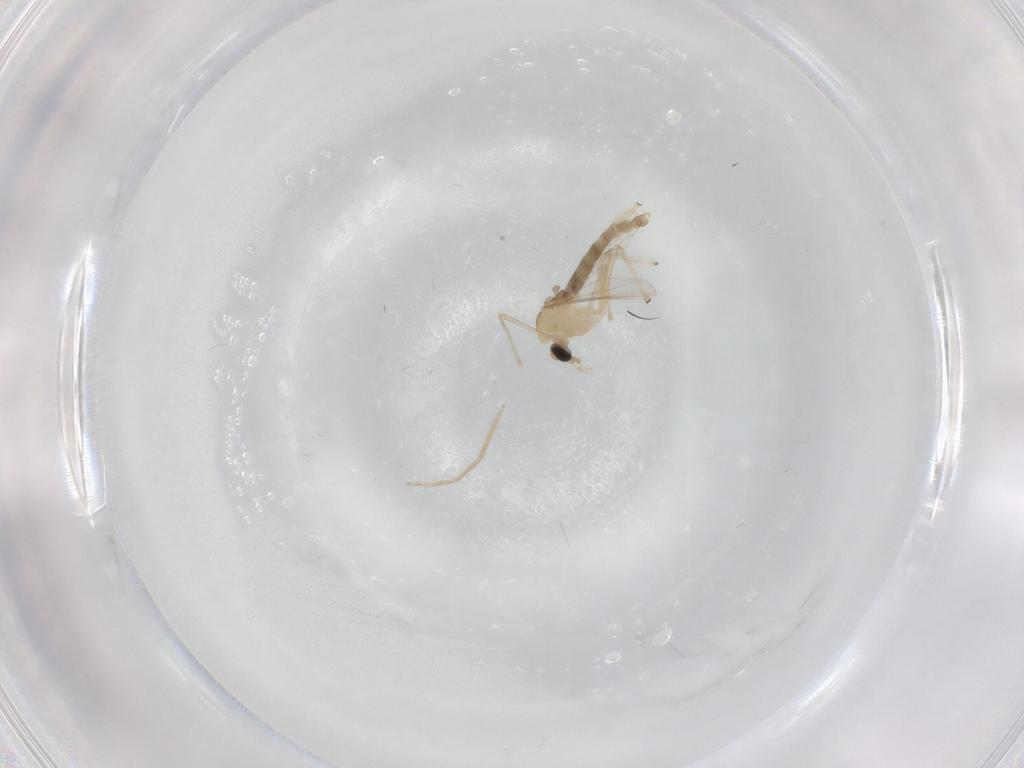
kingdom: Animalia
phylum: Arthropoda
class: Insecta
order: Diptera
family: Chironomidae
